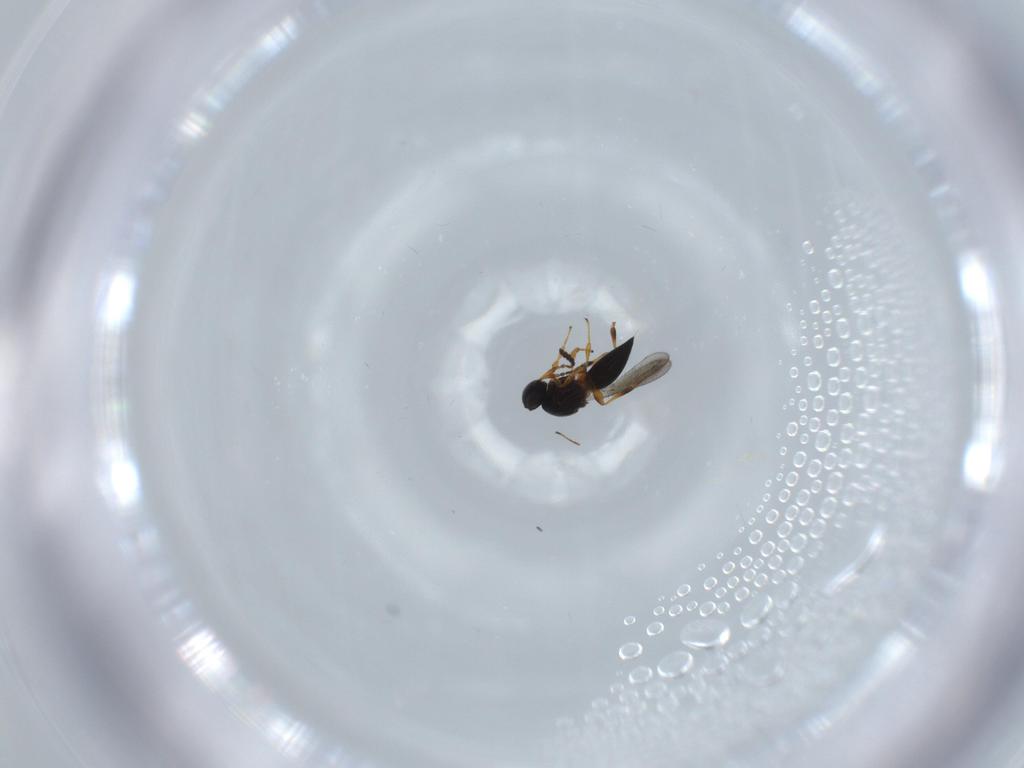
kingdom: Animalia
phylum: Arthropoda
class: Insecta
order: Hymenoptera
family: Platygastridae
